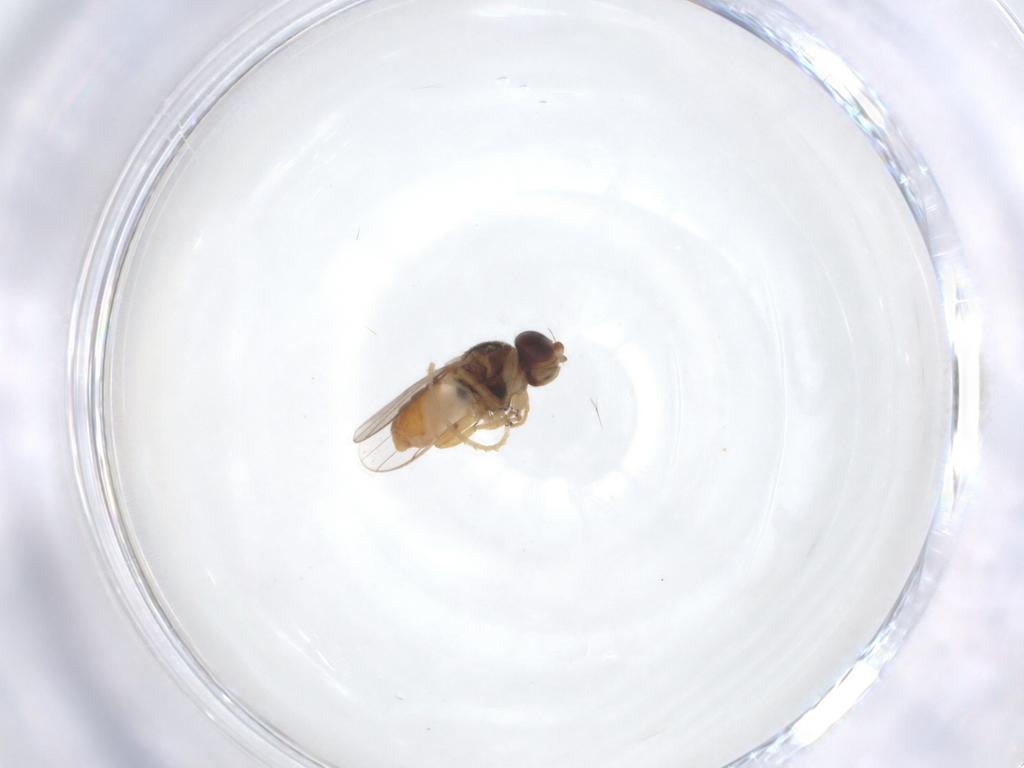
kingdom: Animalia
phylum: Arthropoda
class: Insecta
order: Diptera
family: Chloropidae
